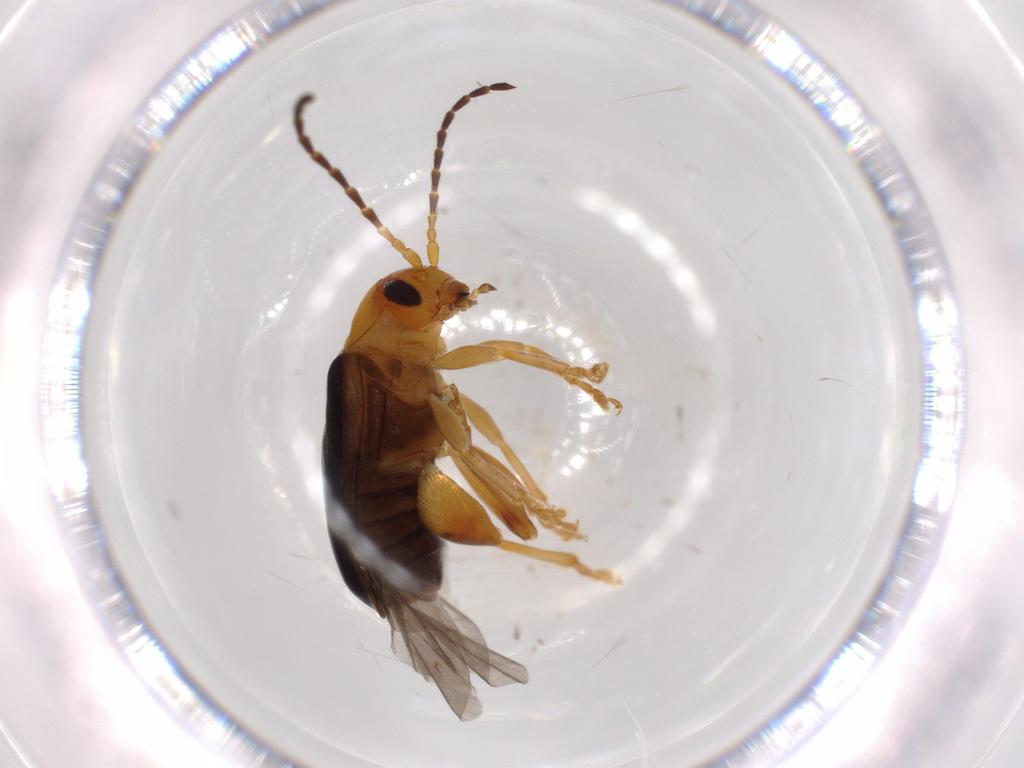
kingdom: Animalia
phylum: Arthropoda
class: Insecta
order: Coleoptera
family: Chrysomelidae
